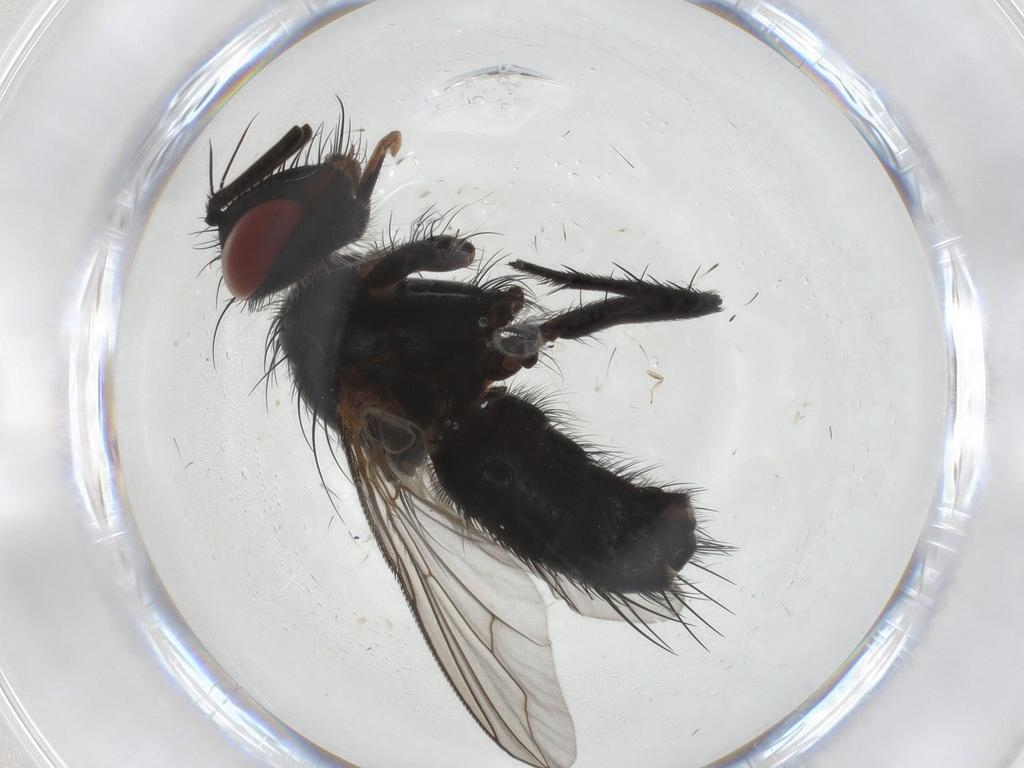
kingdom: Animalia
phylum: Arthropoda
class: Insecta
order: Diptera
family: Tachinidae
